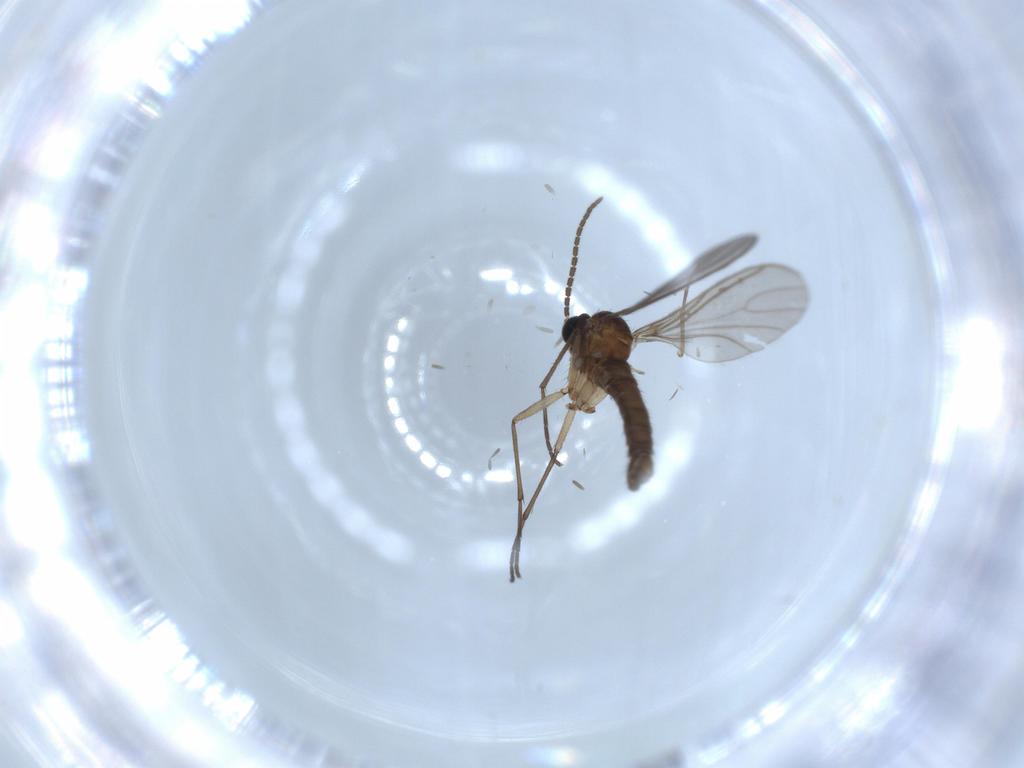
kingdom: Animalia
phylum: Arthropoda
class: Insecta
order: Diptera
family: Sciaridae
